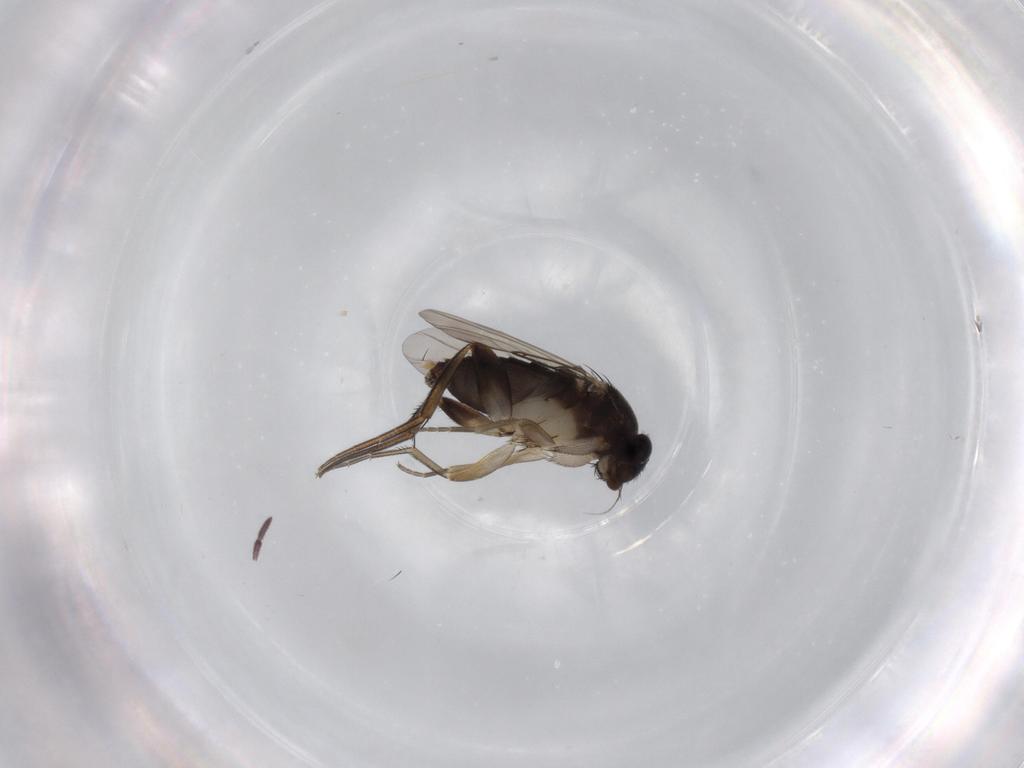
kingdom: Animalia
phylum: Arthropoda
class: Insecta
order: Diptera
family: Phoridae
